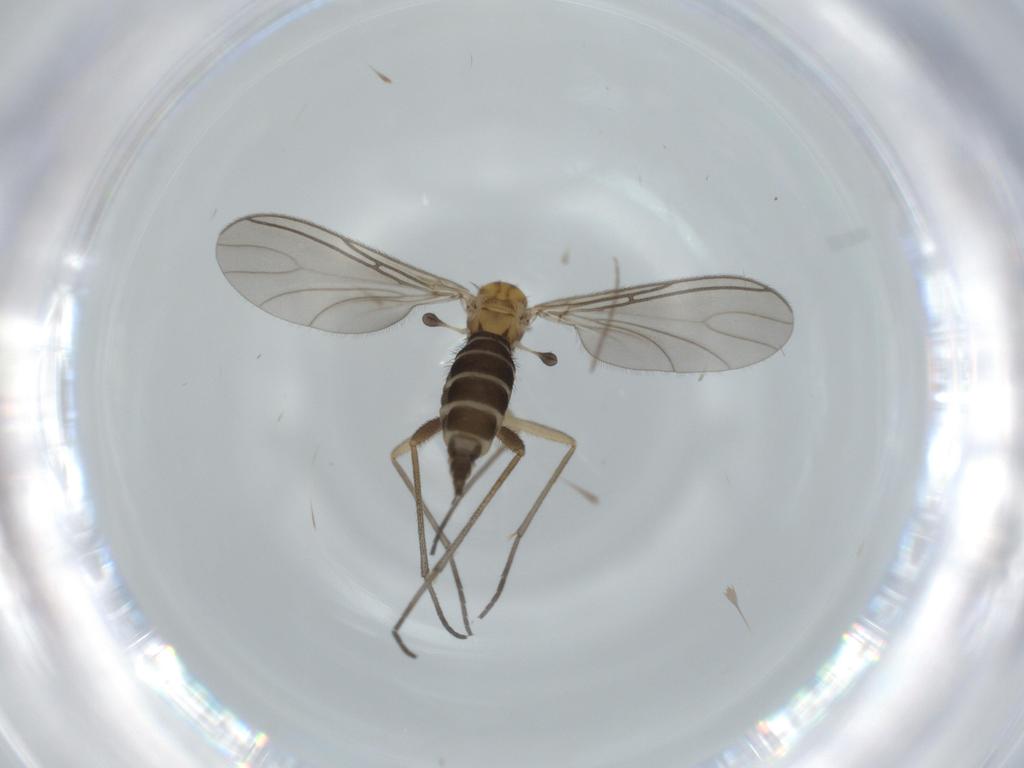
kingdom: Animalia
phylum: Arthropoda
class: Insecta
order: Diptera
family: Sciaridae
